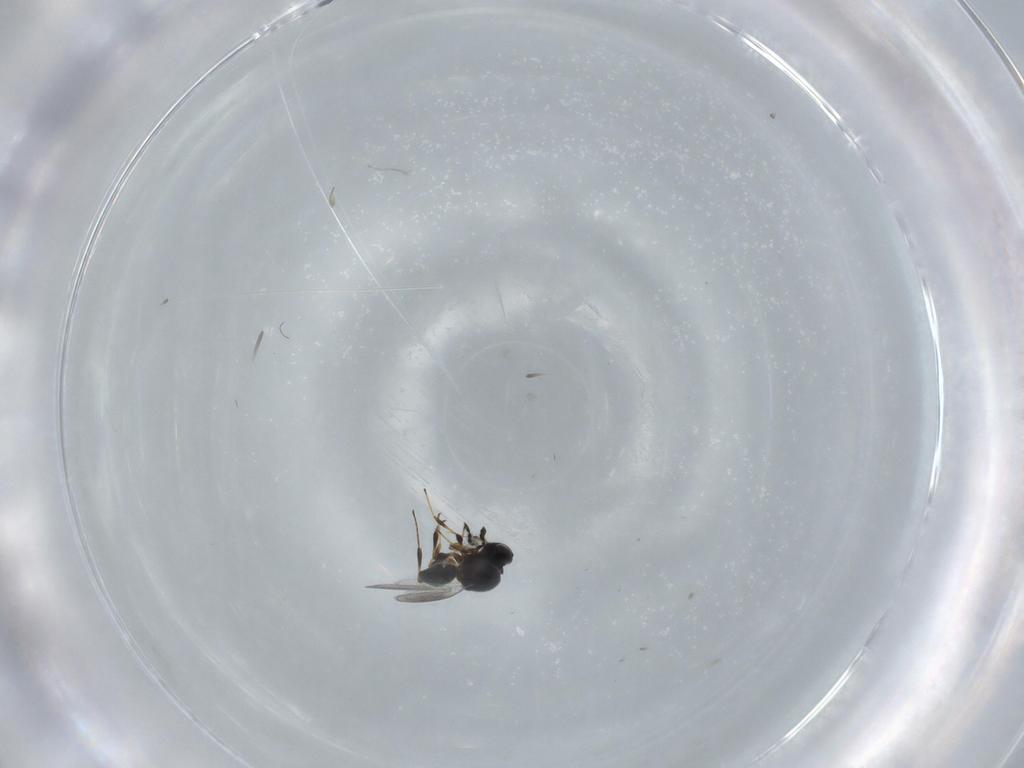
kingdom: Animalia
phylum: Arthropoda
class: Insecta
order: Hymenoptera
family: Platygastridae
